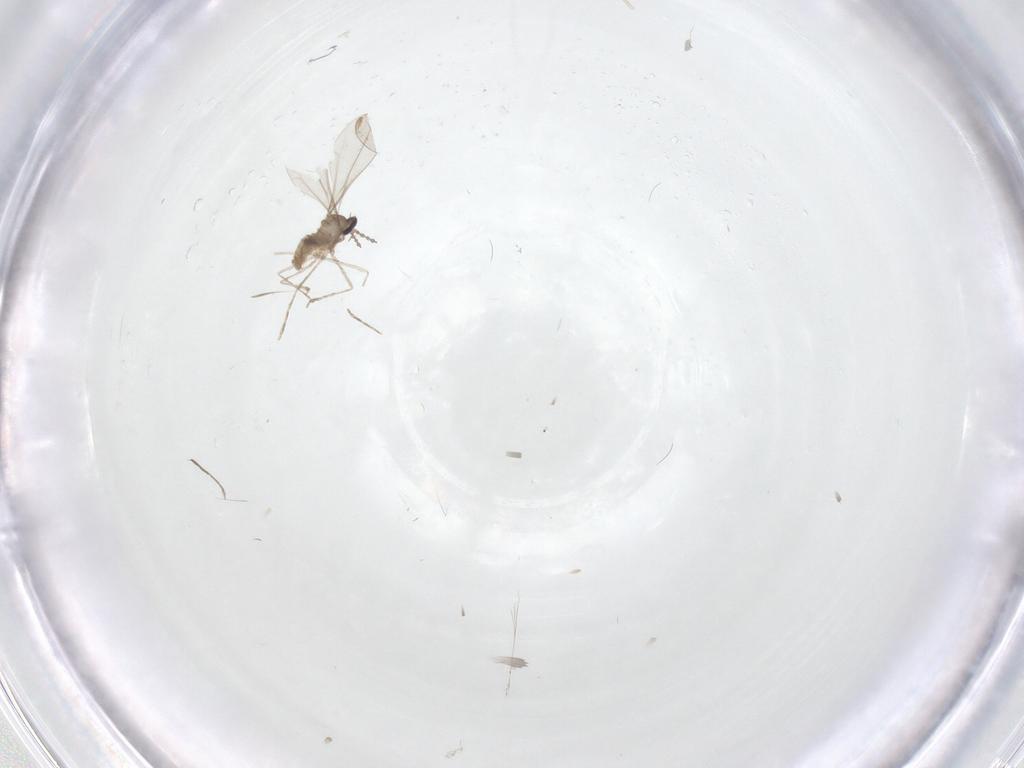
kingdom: Animalia
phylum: Arthropoda
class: Insecta
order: Diptera
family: Chironomidae
